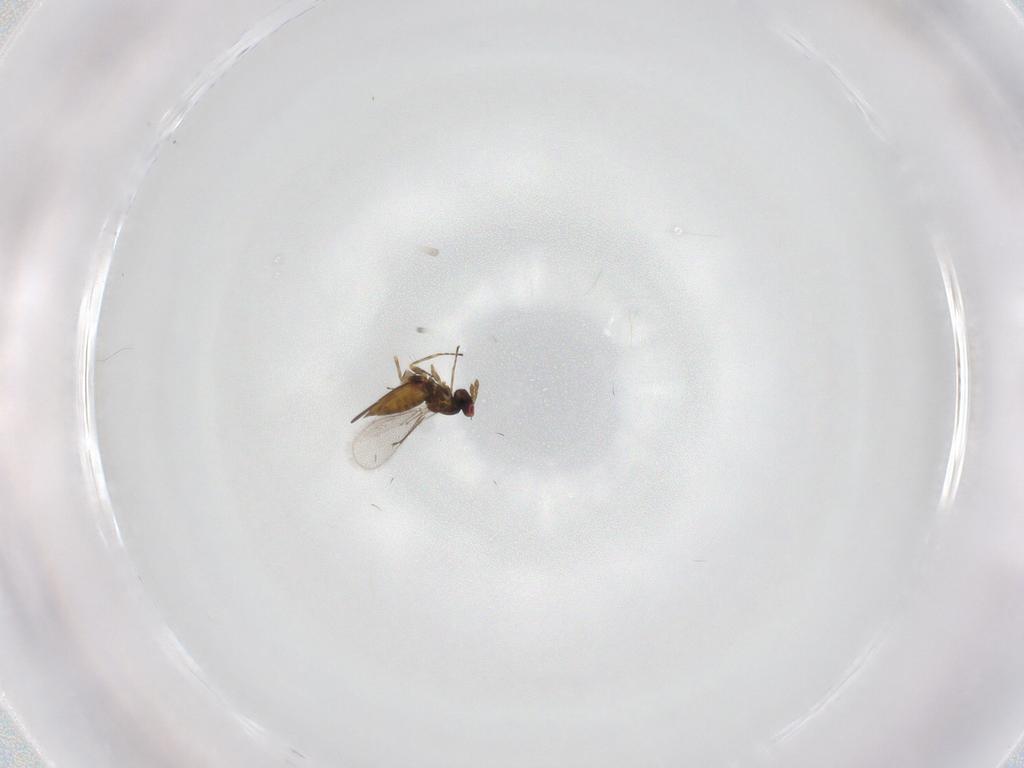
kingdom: Animalia
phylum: Arthropoda
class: Insecta
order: Hymenoptera
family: Eulophidae
